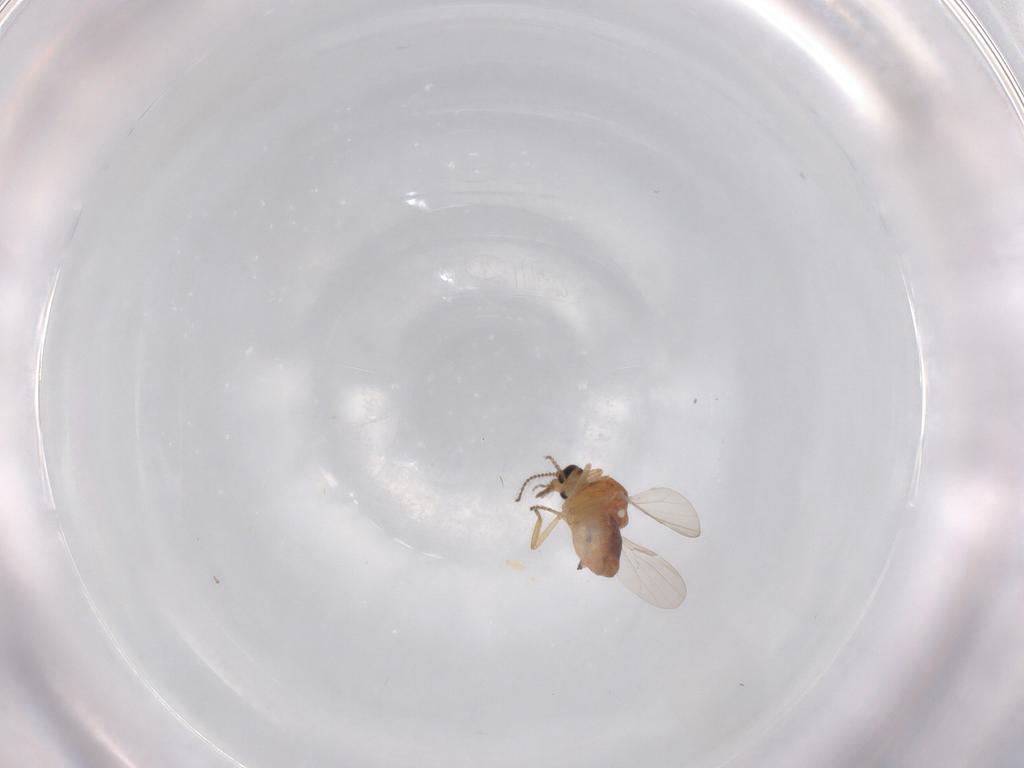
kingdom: Animalia
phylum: Arthropoda
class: Insecta
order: Diptera
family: Ceratopogonidae
